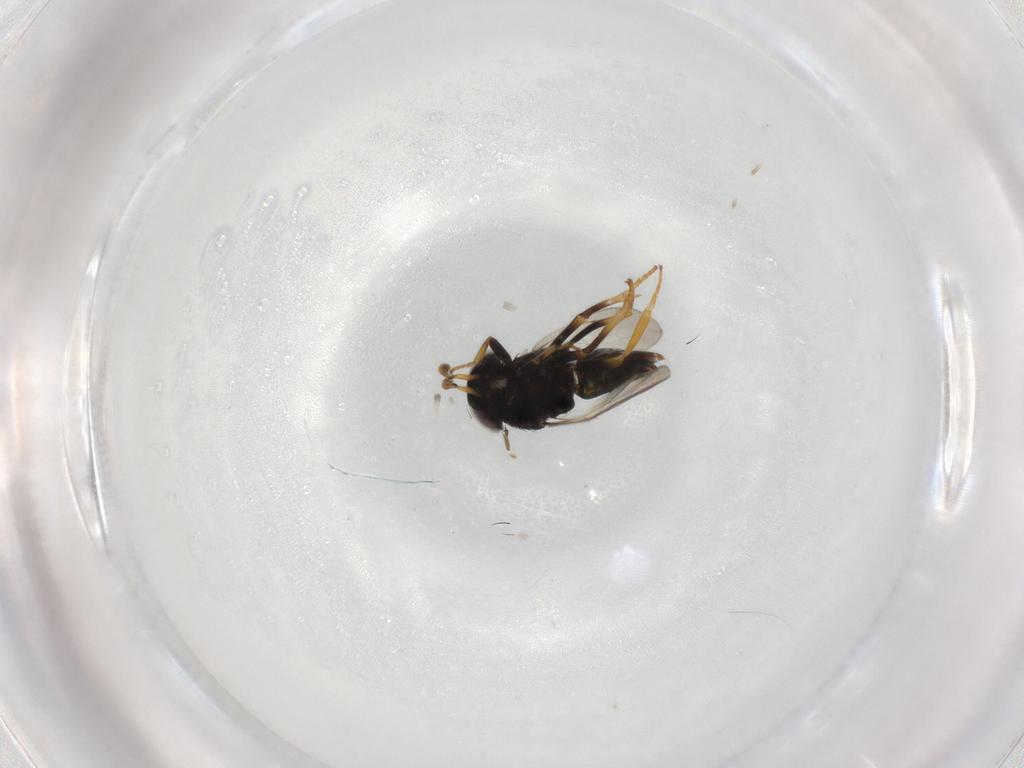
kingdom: Animalia
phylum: Arthropoda
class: Insecta
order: Hymenoptera
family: Encyrtidae
